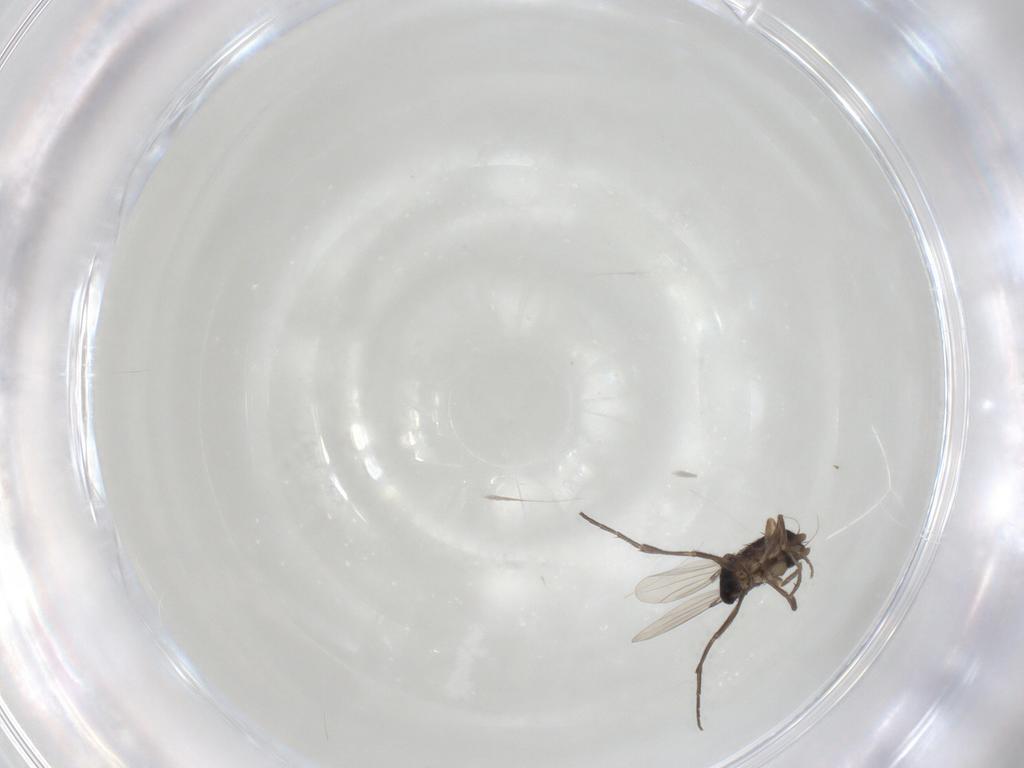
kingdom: Animalia
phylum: Arthropoda
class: Insecta
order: Diptera
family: Phoridae
